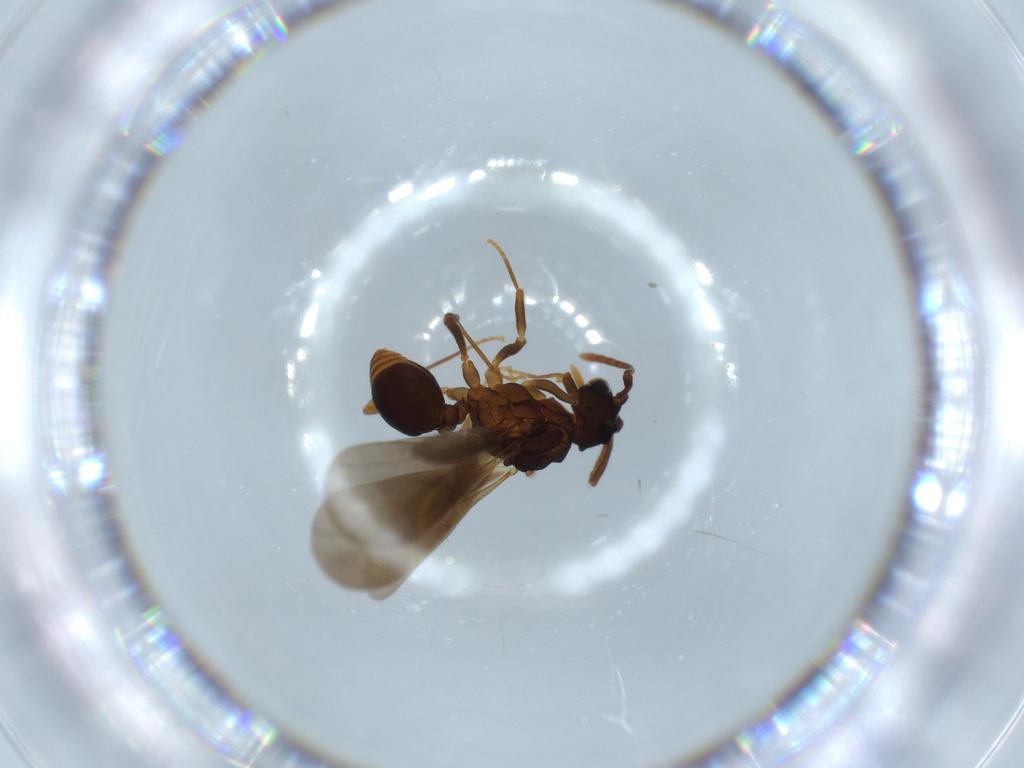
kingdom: Animalia
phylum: Arthropoda
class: Insecta
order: Hymenoptera
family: Formicidae
